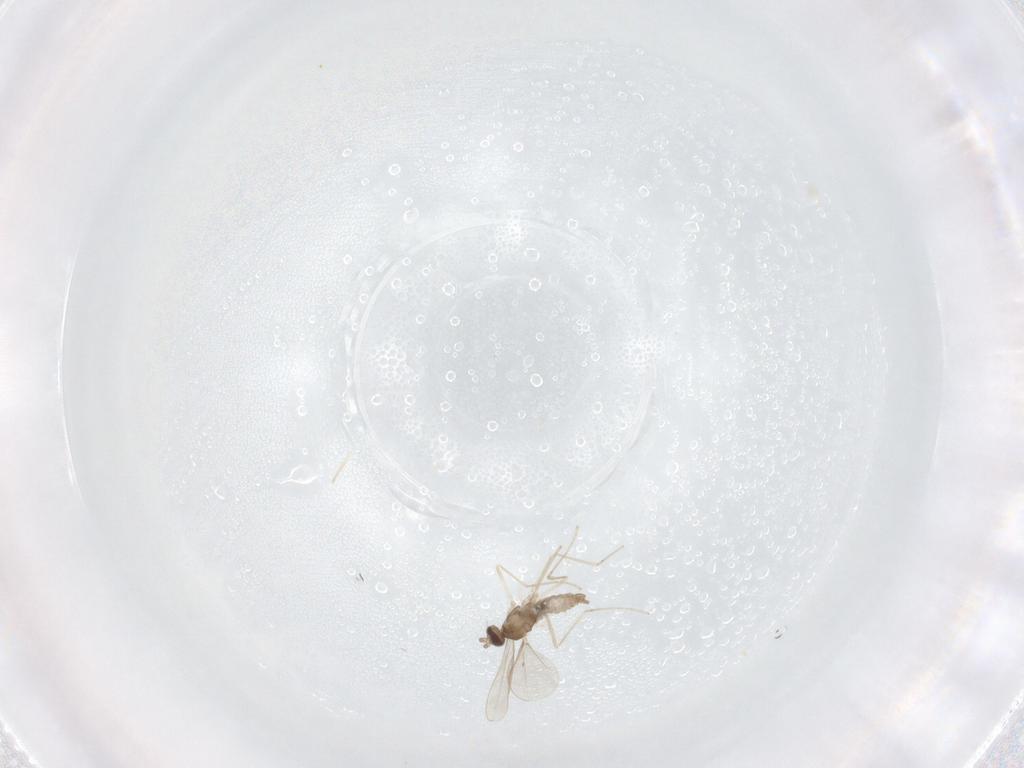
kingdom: Animalia
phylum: Arthropoda
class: Insecta
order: Diptera
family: Cecidomyiidae
